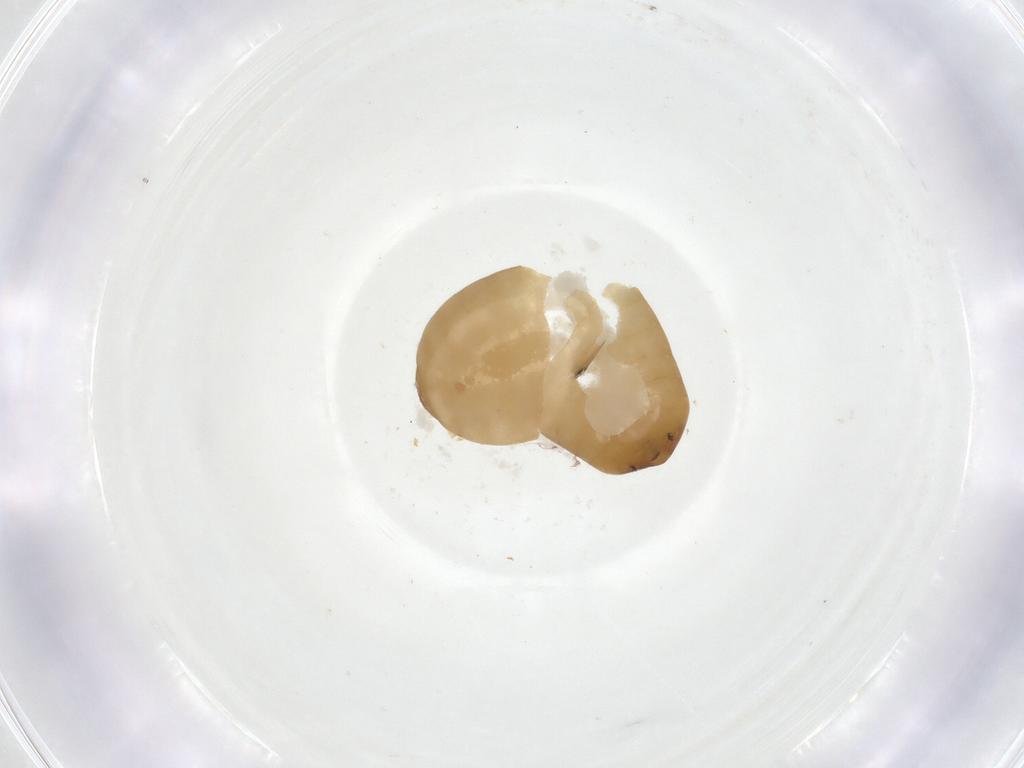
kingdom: Animalia
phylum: Arthropoda
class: Insecta
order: Diptera
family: Fergusoninidae
